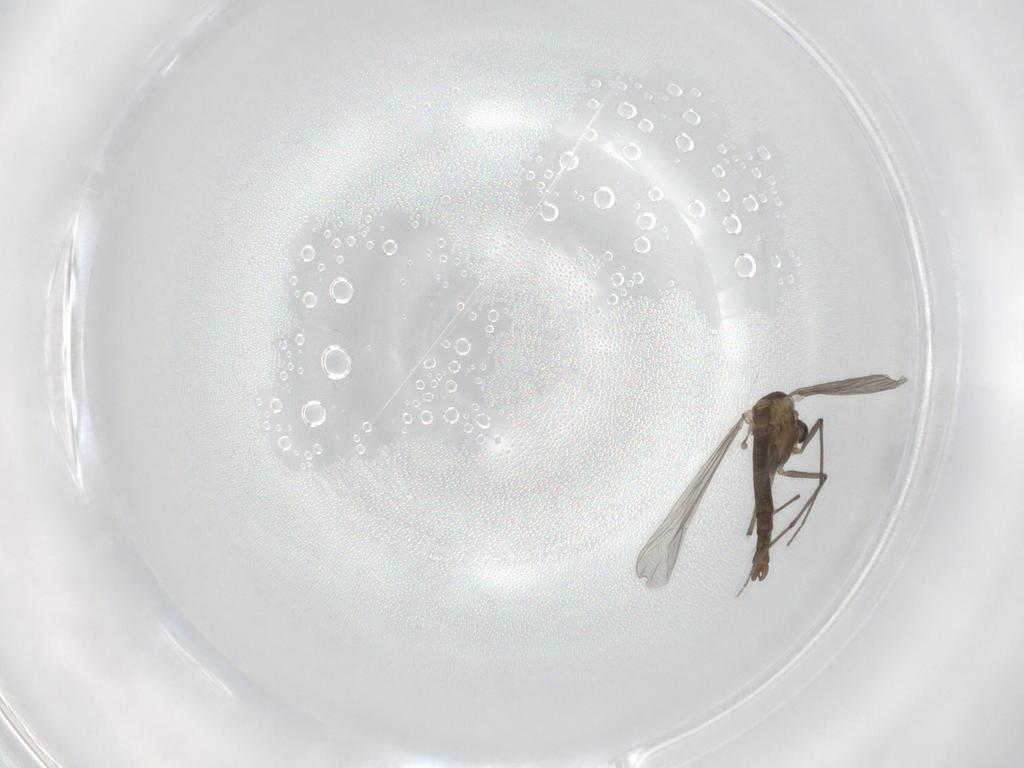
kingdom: Animalia
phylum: Arthropoda
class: Insecta
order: Diptera
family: Chironomidae
